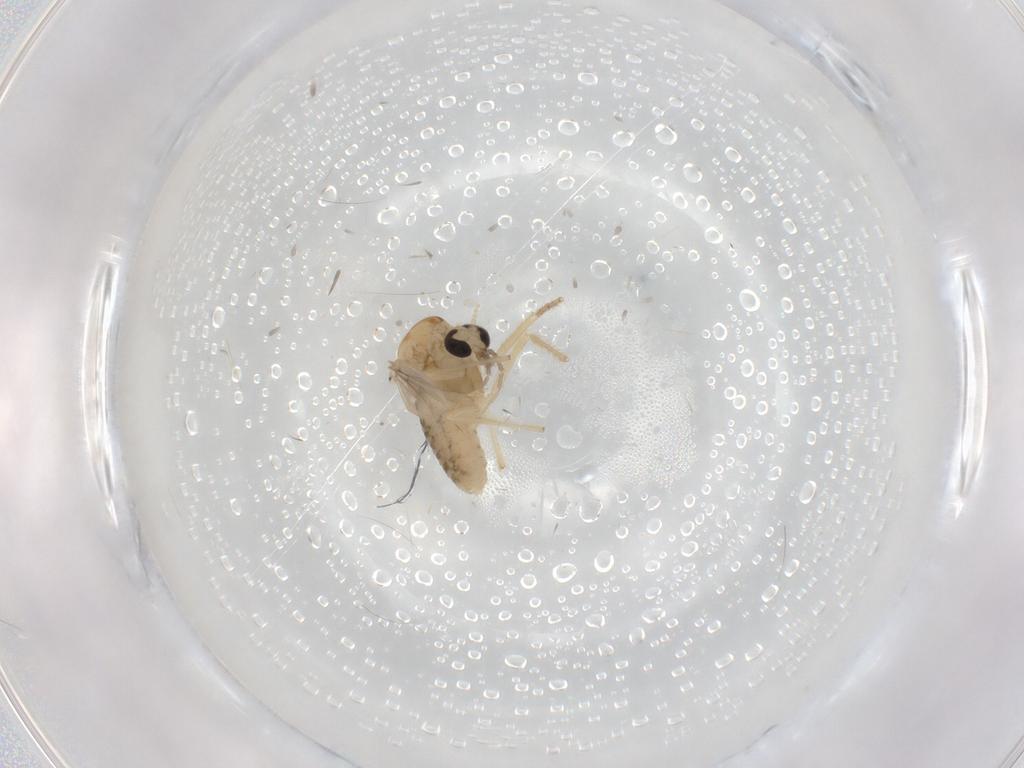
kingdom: Animalia
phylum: Arthropoda
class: Insecta
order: Diptera
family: Chironomidae
